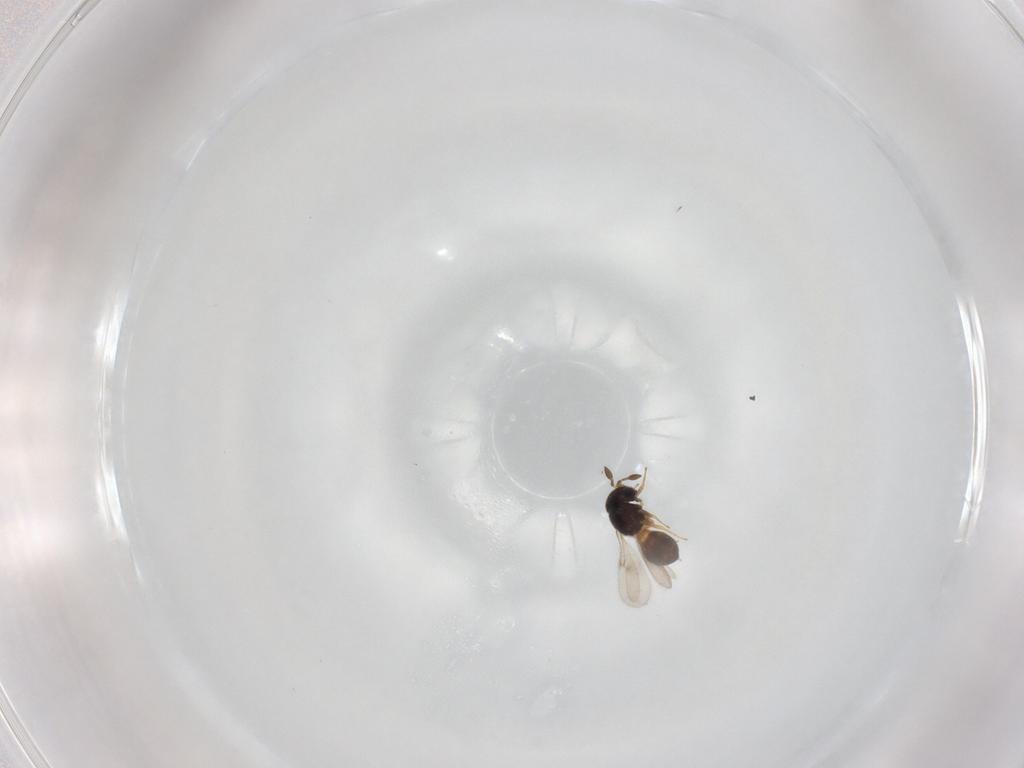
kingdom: Animalia
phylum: Arthropoda
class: Insecta
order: Hymenoptera
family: Scelionidae
